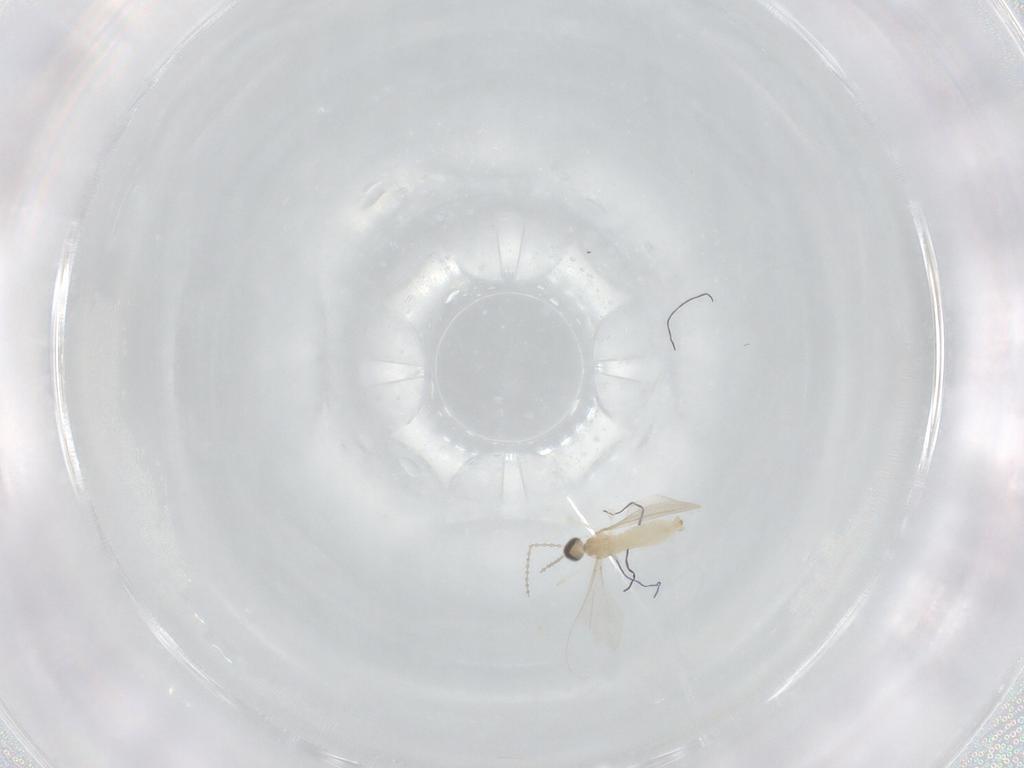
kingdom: Animalia
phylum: Arthropoda
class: Insecta
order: Diptera
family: Cecidomyiidae
